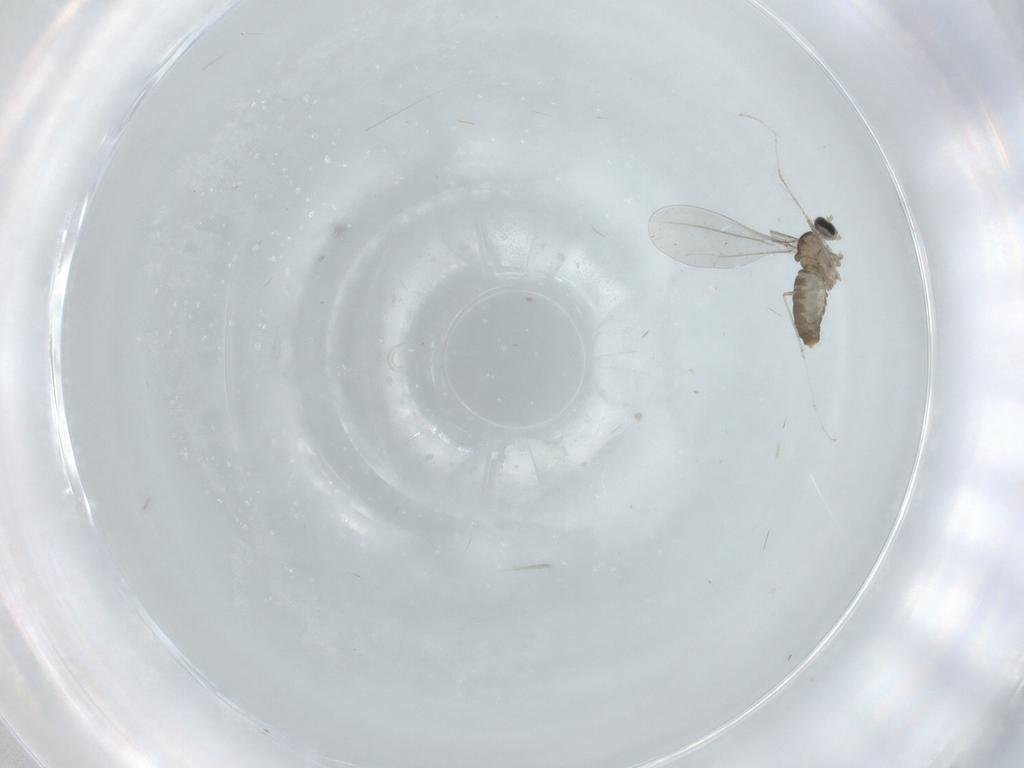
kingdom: Animalia
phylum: Arthropoda
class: Insecta
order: Diptera
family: Cecidomyiidae
